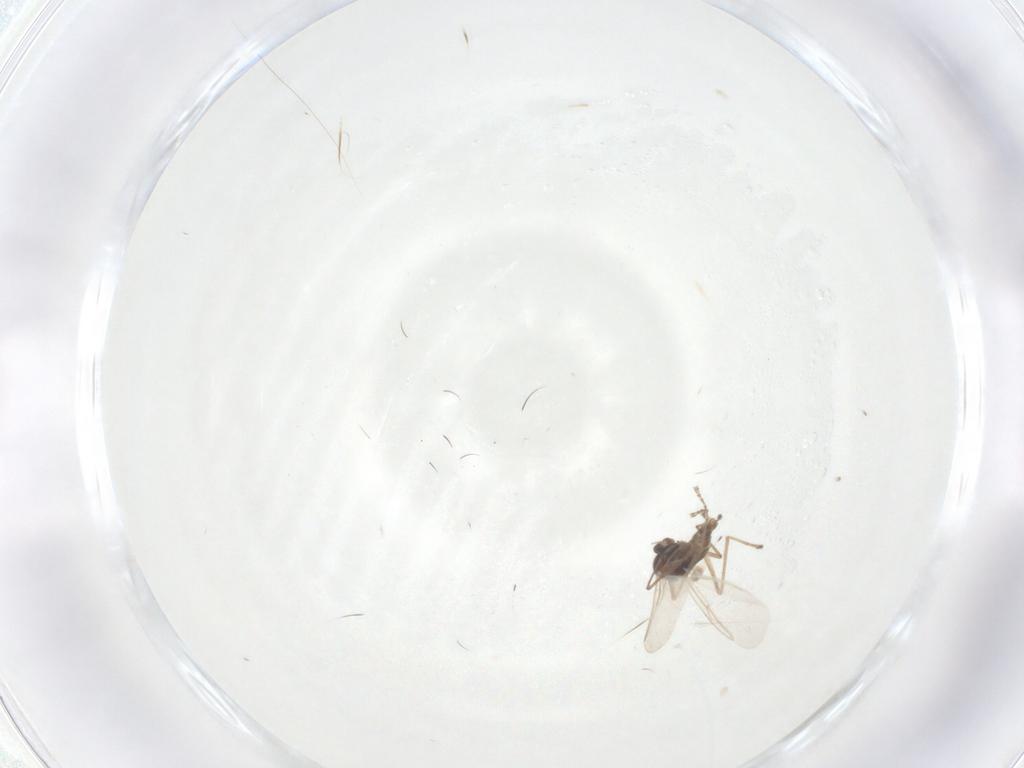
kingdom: Animalia
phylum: Arthropoda
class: Insecta
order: Diptera
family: Cecidomyiidae
